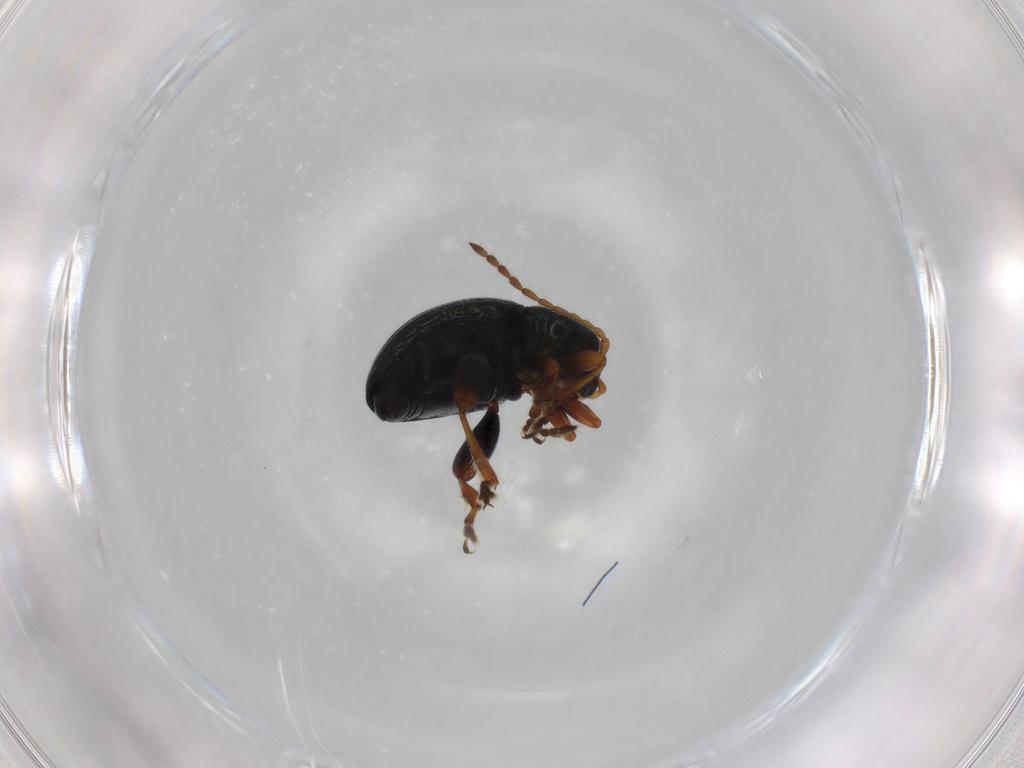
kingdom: Animalia
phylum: Arthropoda
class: Insecta
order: Coleoptera
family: Chrysomelidae
